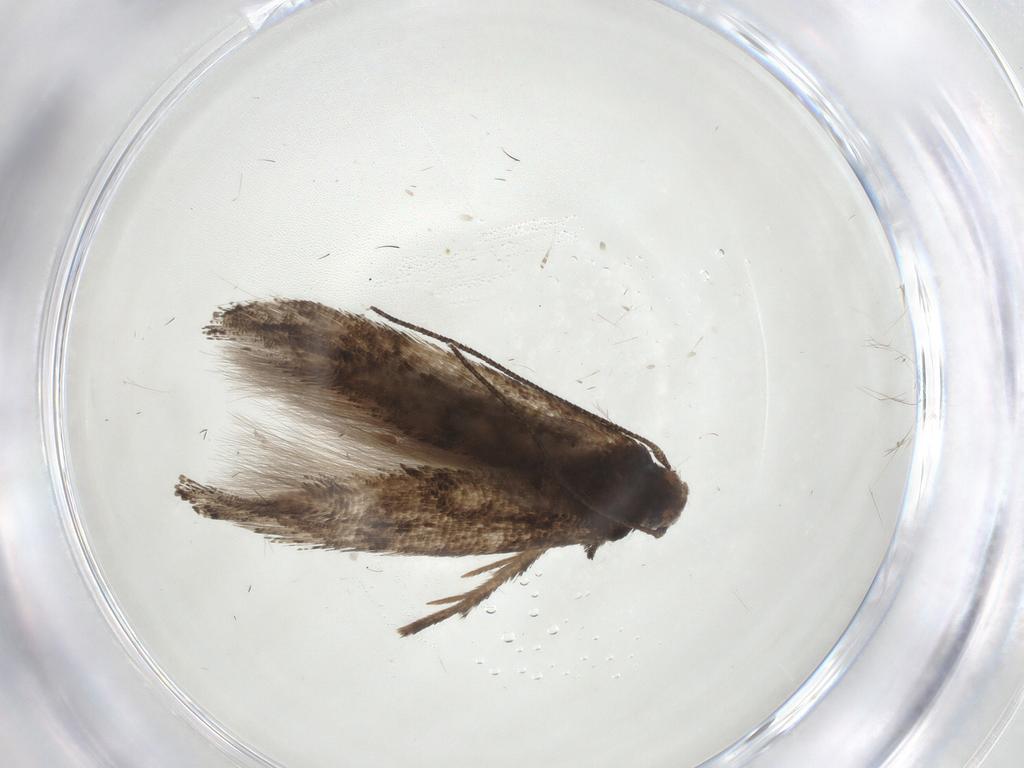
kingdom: Animalia
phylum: Arthropoda
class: Insecta
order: Lepidoptera
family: Momphidae
